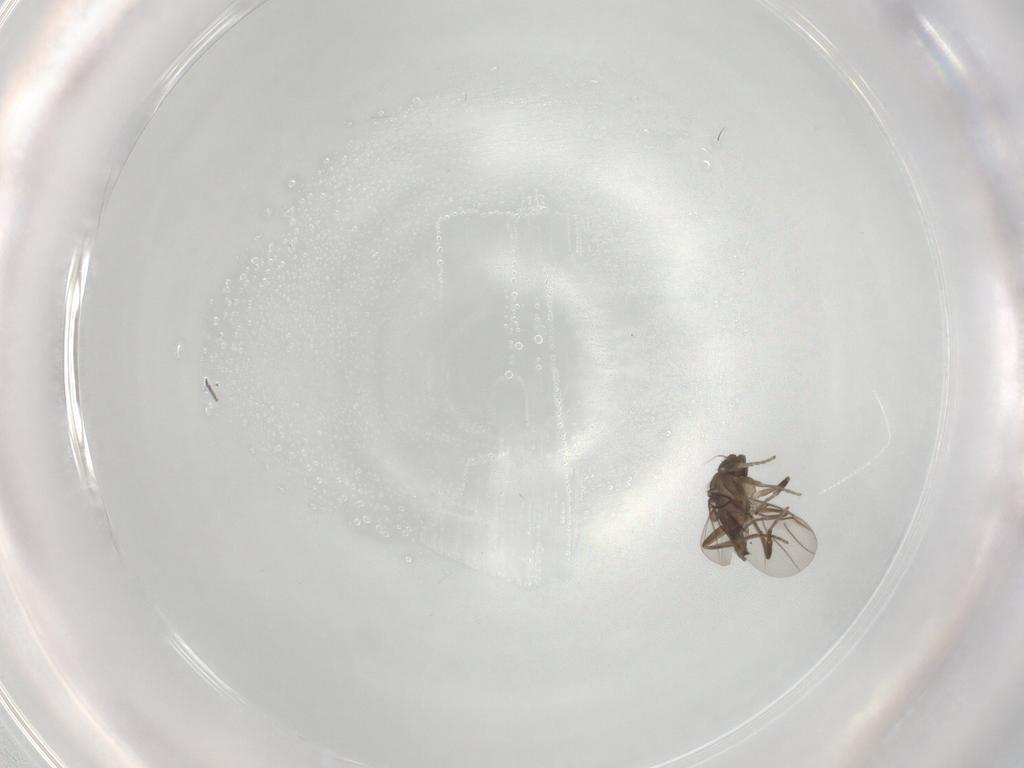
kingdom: Animalia
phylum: Arthropoda
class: Insecta
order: Diptera
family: Phoridae
